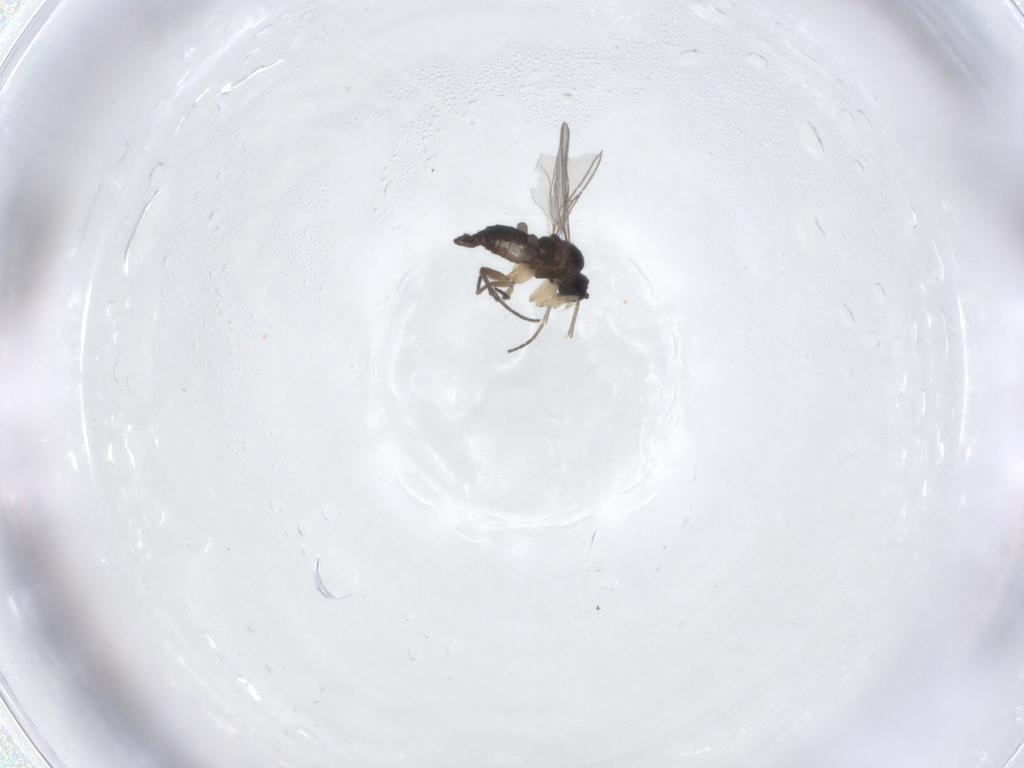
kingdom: Animalia
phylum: Arthropoda
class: Insecta
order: Diptera
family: Sciaridae
